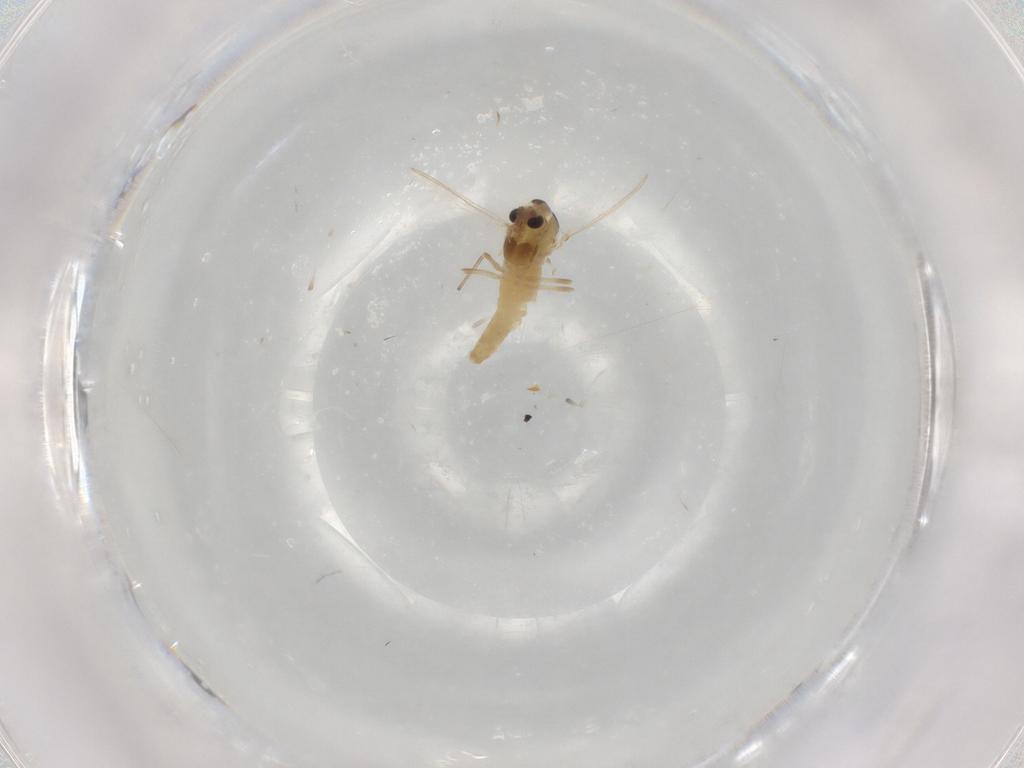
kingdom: Animalia
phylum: Arthropoda
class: Insecta
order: Diptera
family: Chironomidae
